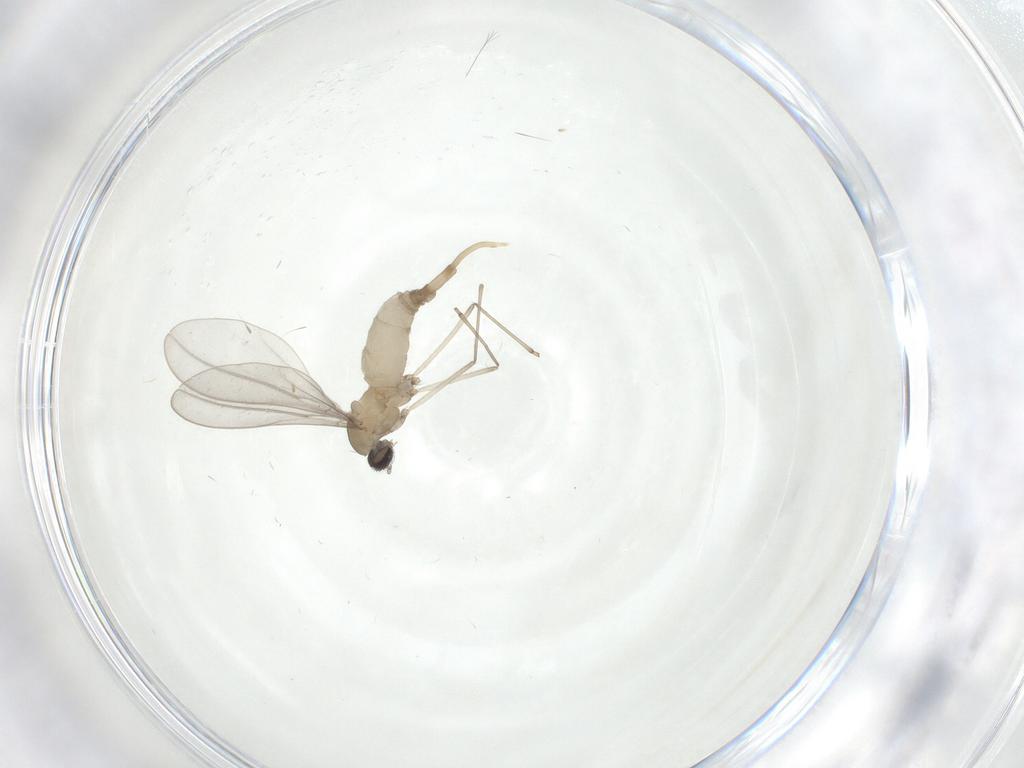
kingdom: Animalia
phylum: Arthropoda
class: Insecta
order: Diptera
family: Cecidomyiidae
